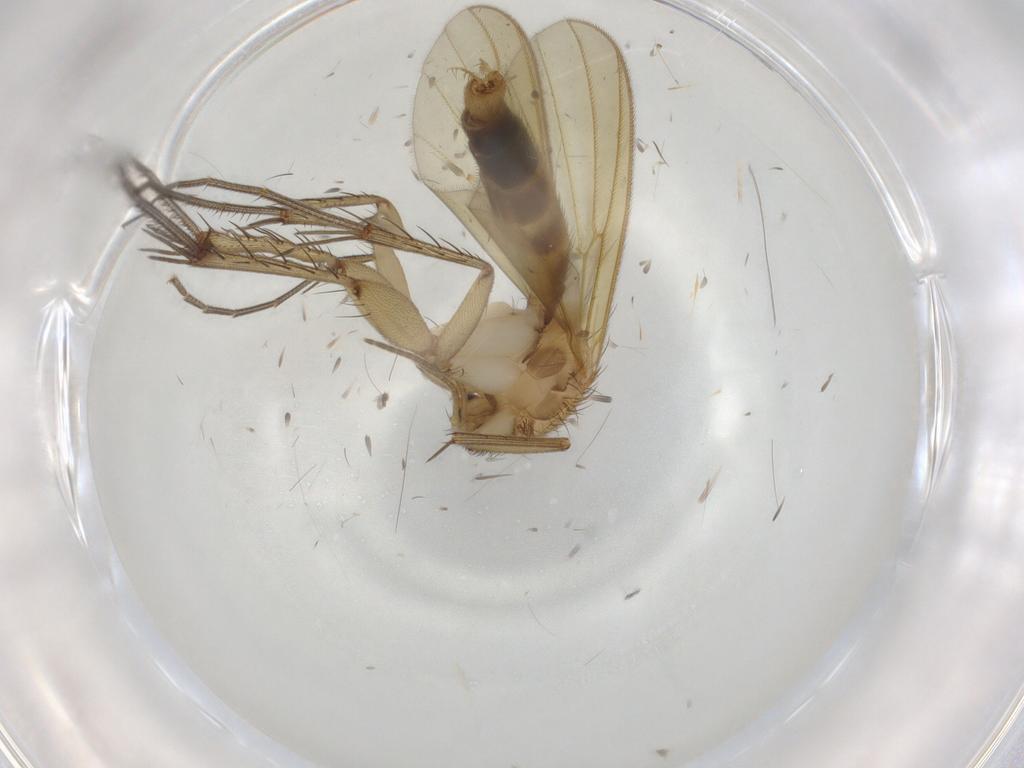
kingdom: Animalia
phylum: Arthropoda
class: Insecta
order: Diptera
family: Mycetophilidae
